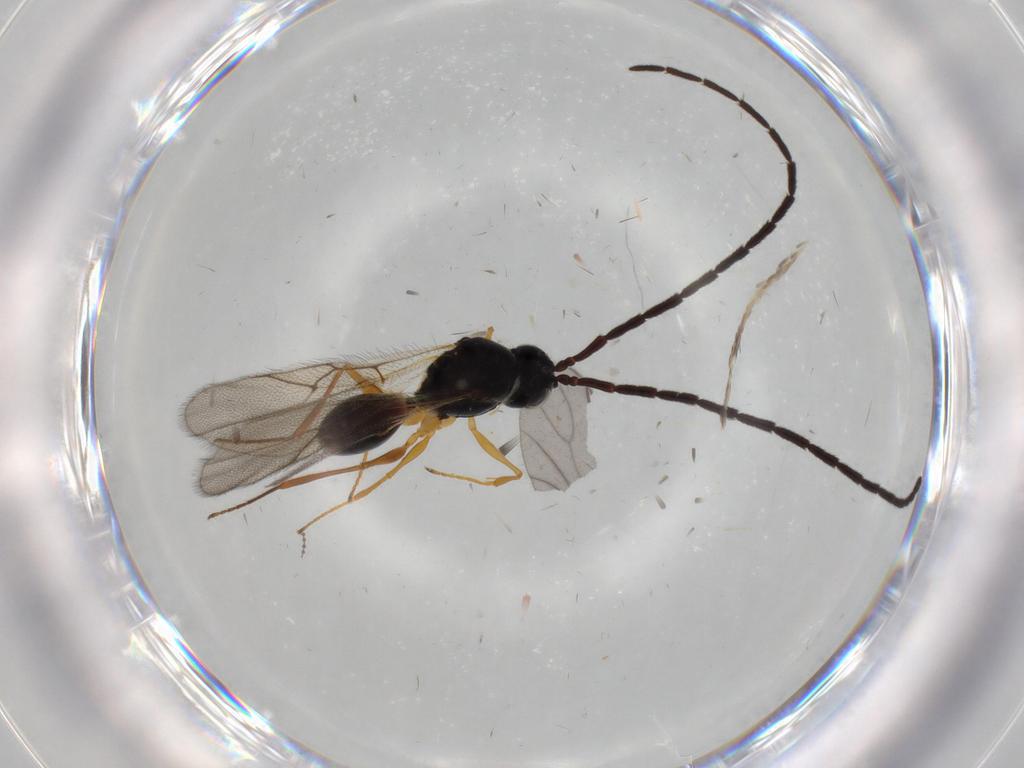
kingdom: Animalia
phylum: Arthropoda
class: Insecta
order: Hymenoptera
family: Figitidae
